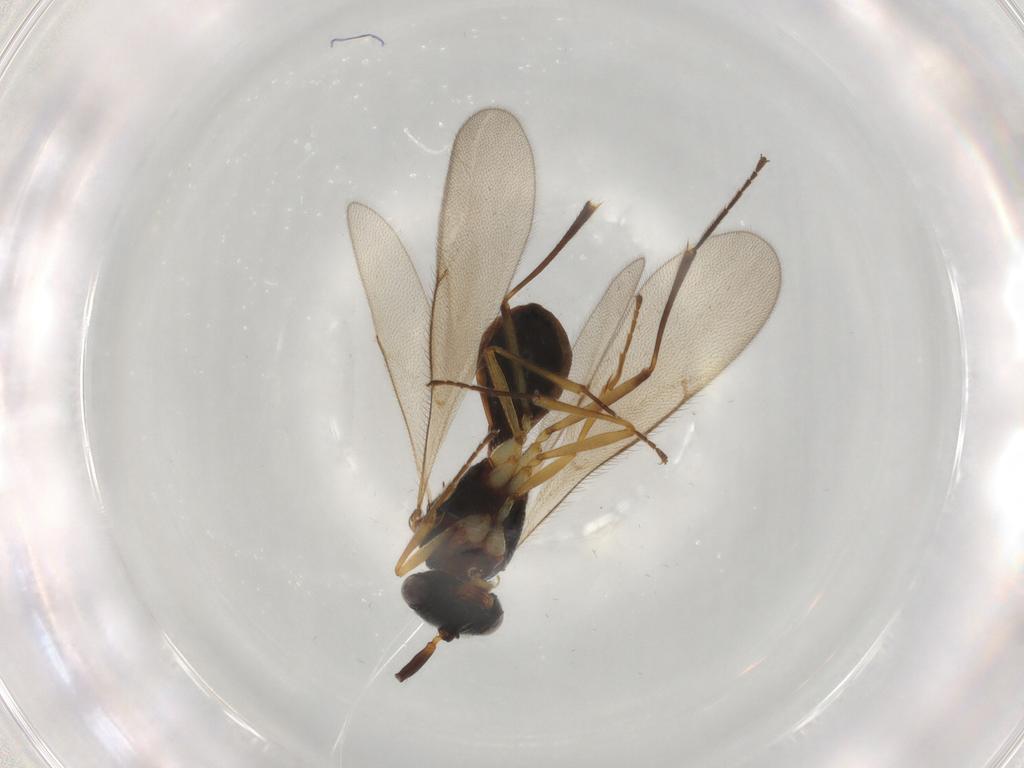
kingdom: Animalia
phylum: Arthropoda
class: Insecta
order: Hymenoptera
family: Scelionidae
